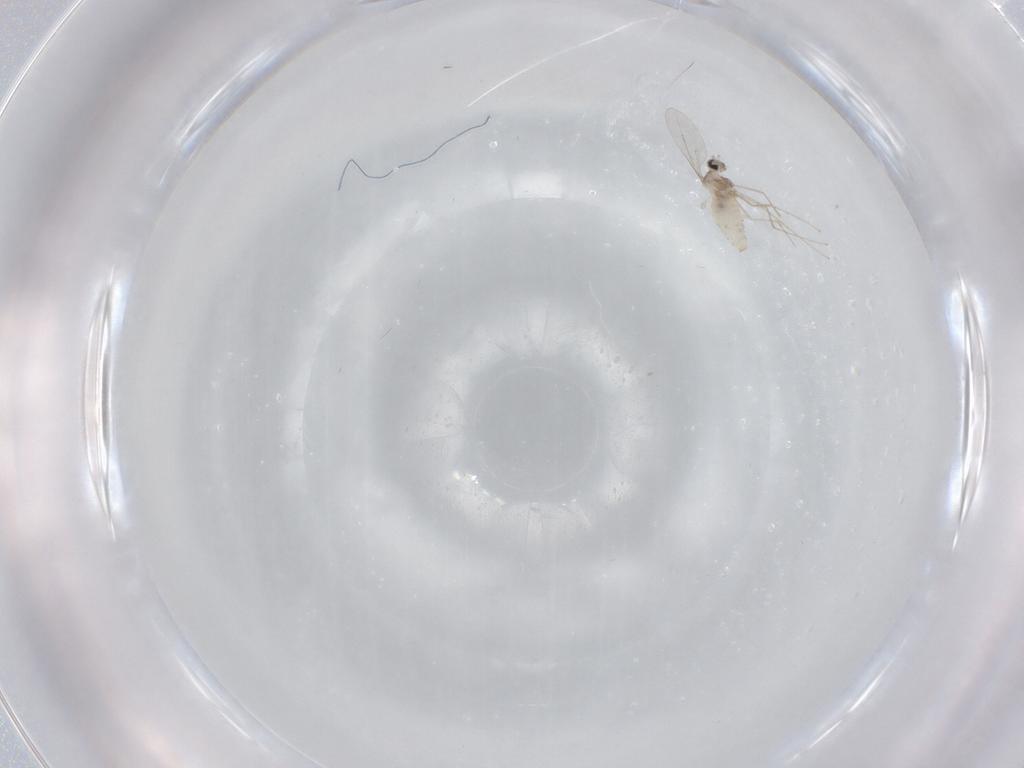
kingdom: Animalia
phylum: Arthropoda
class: Insecta
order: Diptera
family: Cecidomyiidae
